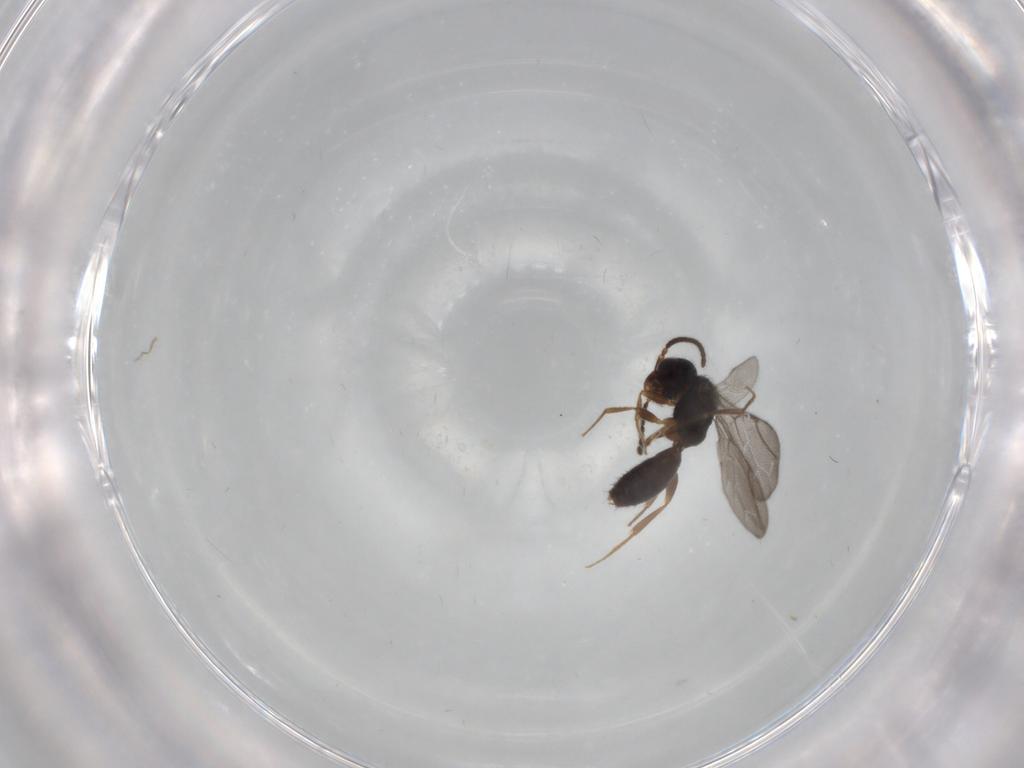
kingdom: Animalia
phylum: Arthropoda
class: Insecta
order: Hymenoptera
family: Bethylidae
